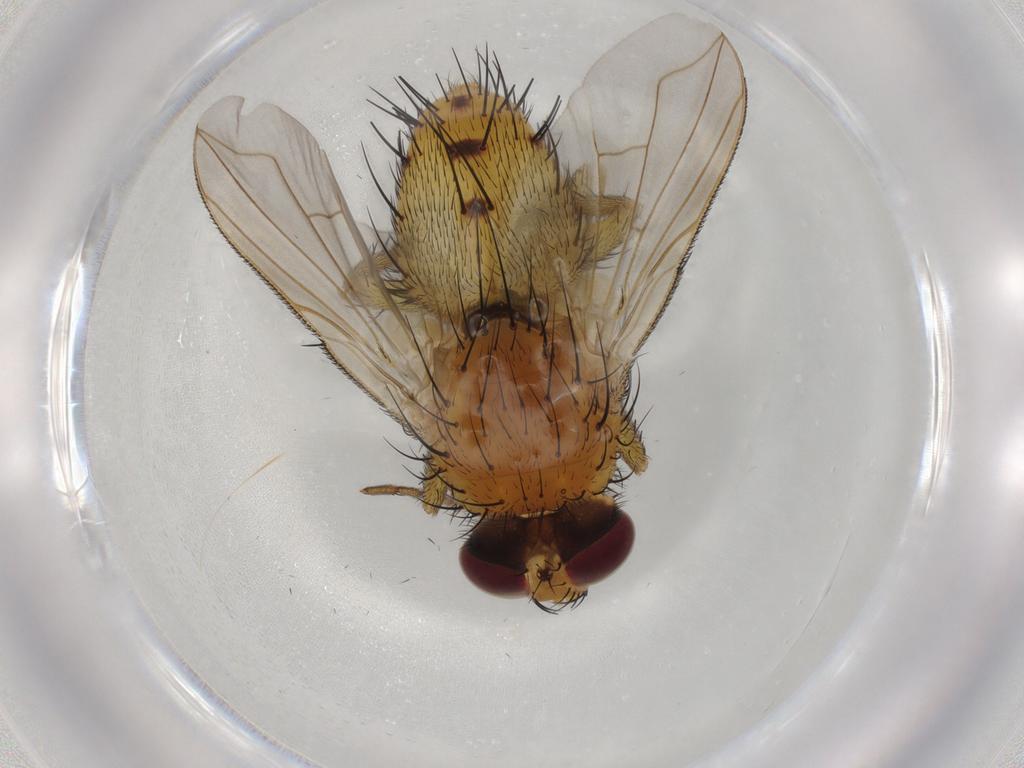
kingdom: Animalia
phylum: Arthropoda
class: Insecta
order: Diptera
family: Tachinidae
